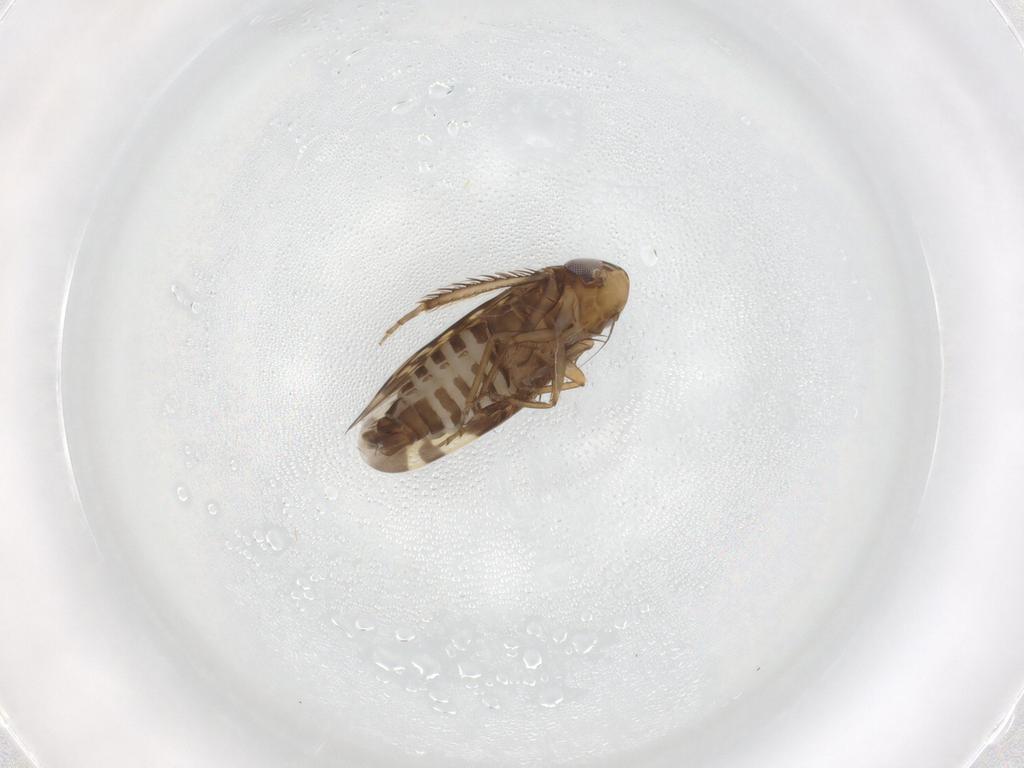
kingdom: Animalia
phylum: Arthropoda
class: Insecta
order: Hemiptera
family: Cicadellidae
